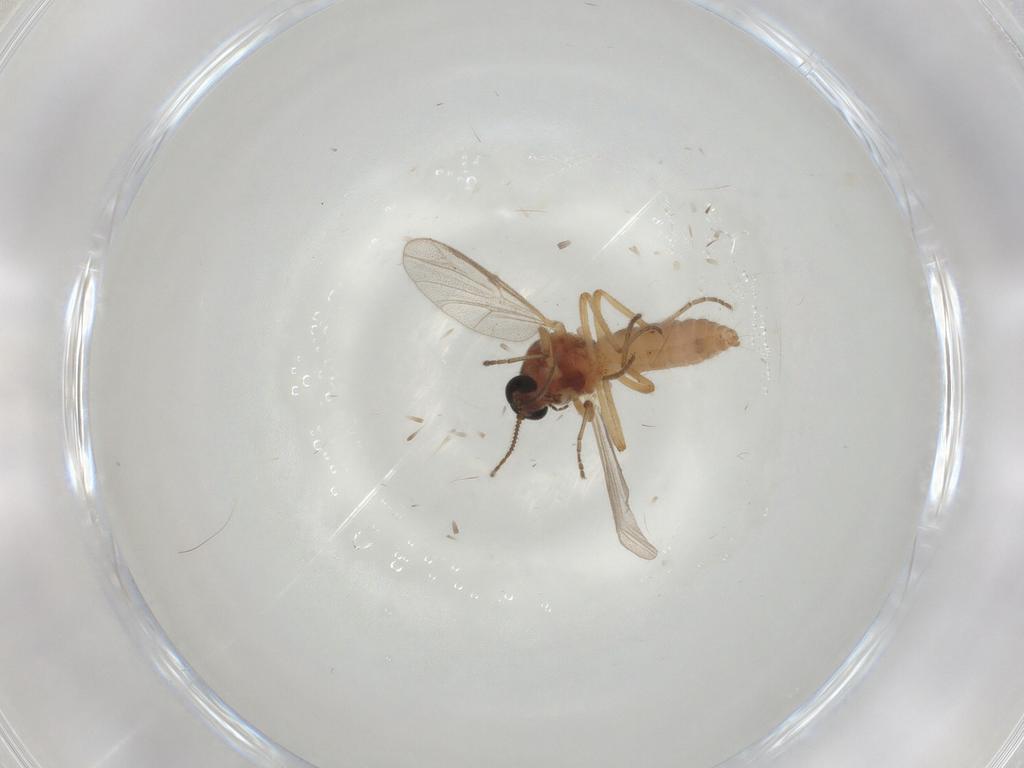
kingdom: Animalia
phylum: Arthropoda
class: Insecta
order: Diptera
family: Ceratopogonidae
